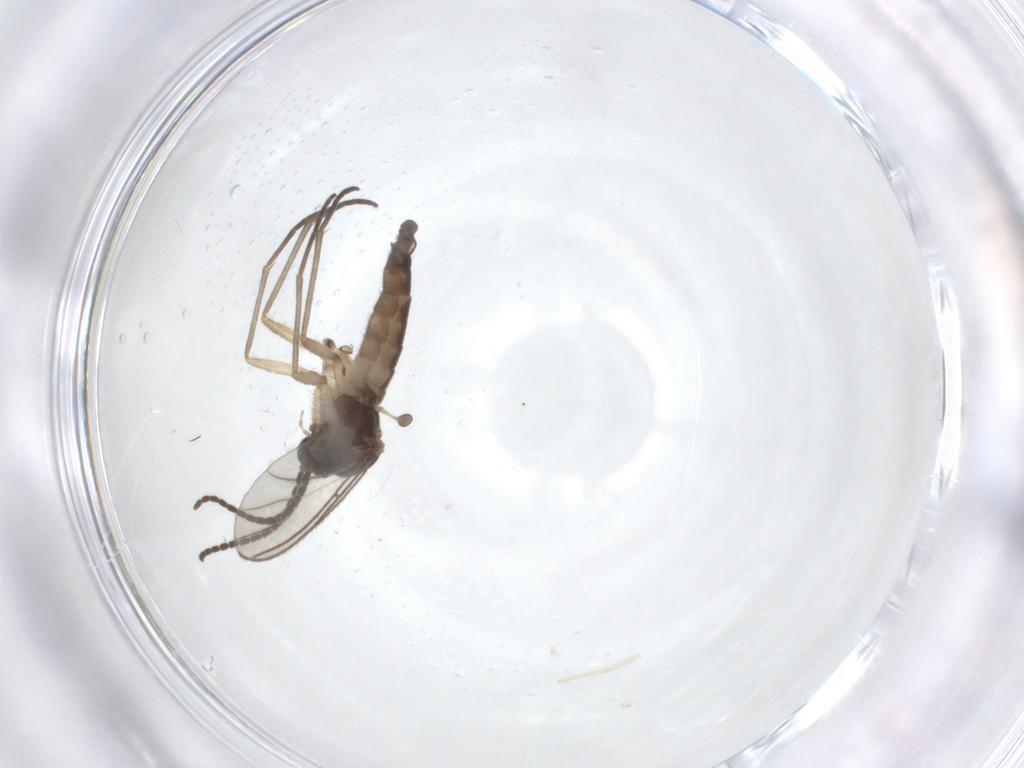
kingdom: Animalia
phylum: Arthropoda
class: Insecta
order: Diptera
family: Sciaridae
